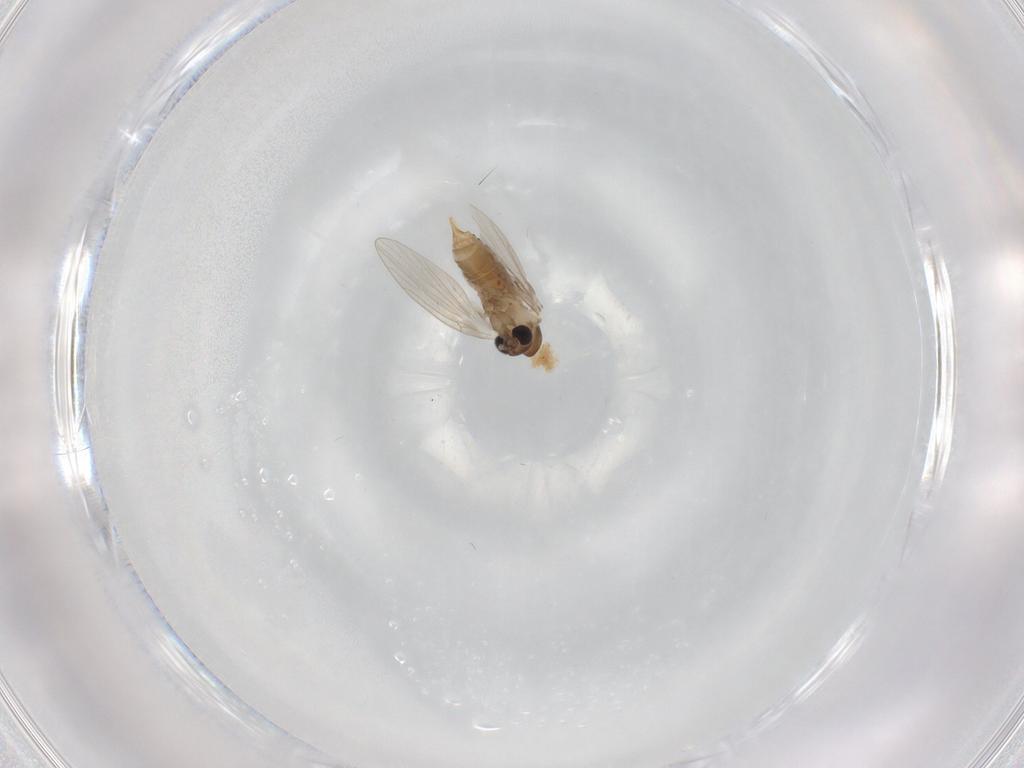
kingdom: Animalia
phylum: Arthropoda
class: Insecta
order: Diptera
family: Psychodidae
